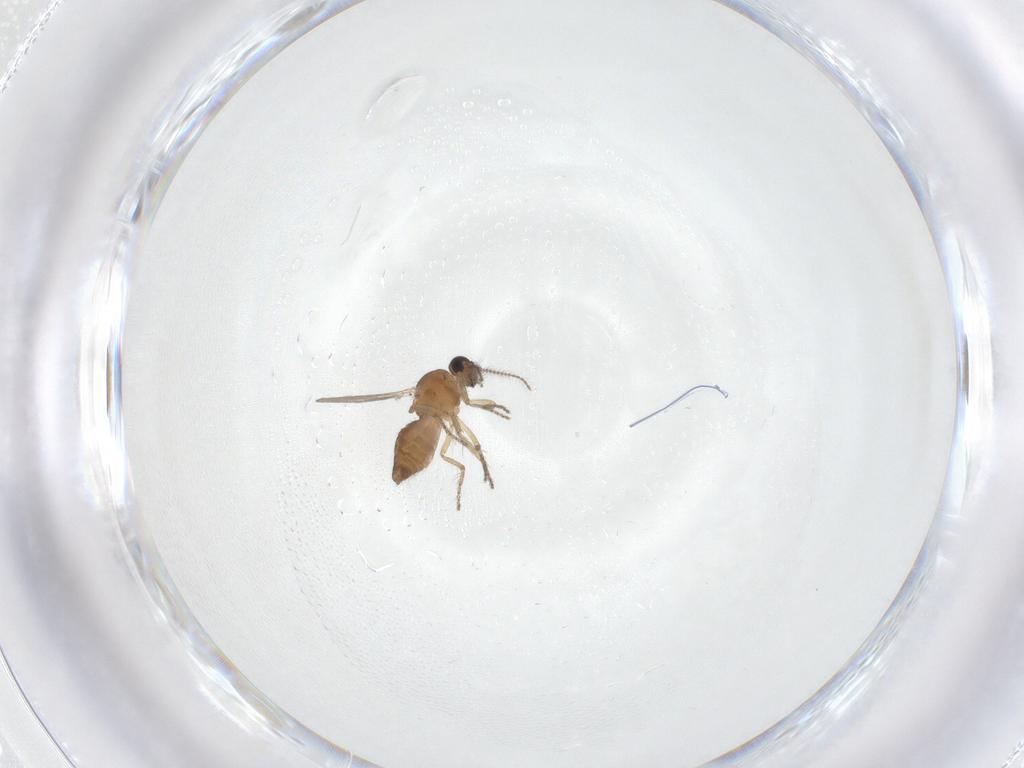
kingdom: Animalia
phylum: Arthropoda
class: Insecta
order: Diptera
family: Ceratopogonidae
